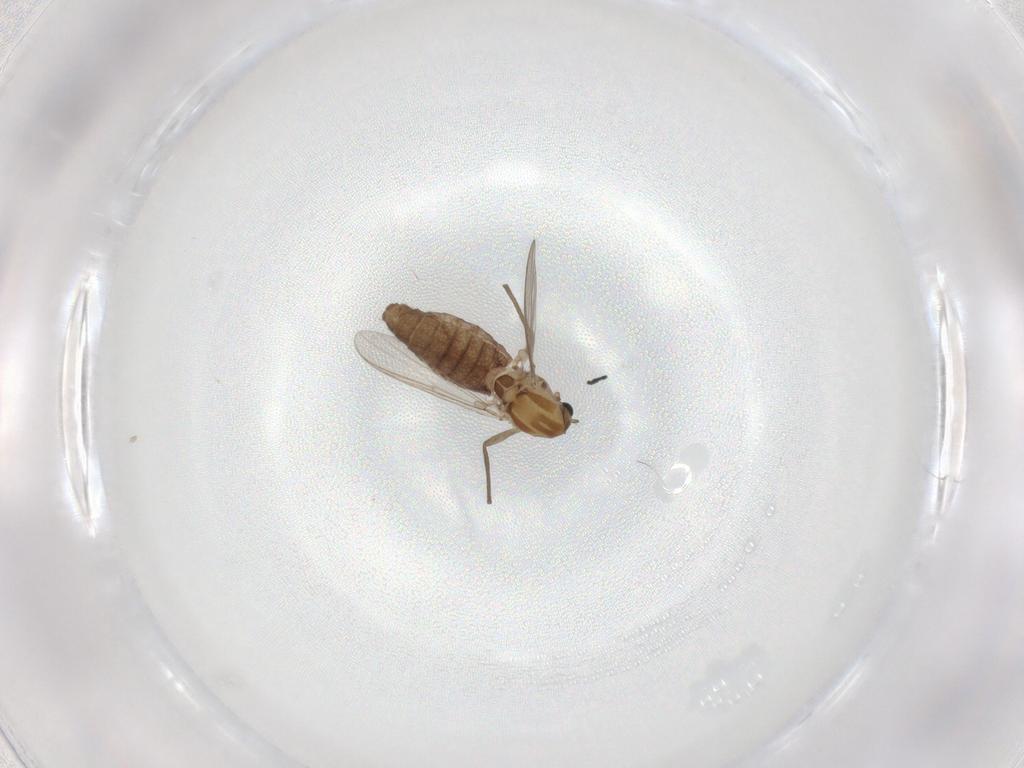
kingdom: Animalia
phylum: Arthropoda
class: Insecta
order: Diptera
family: Chironomidae
